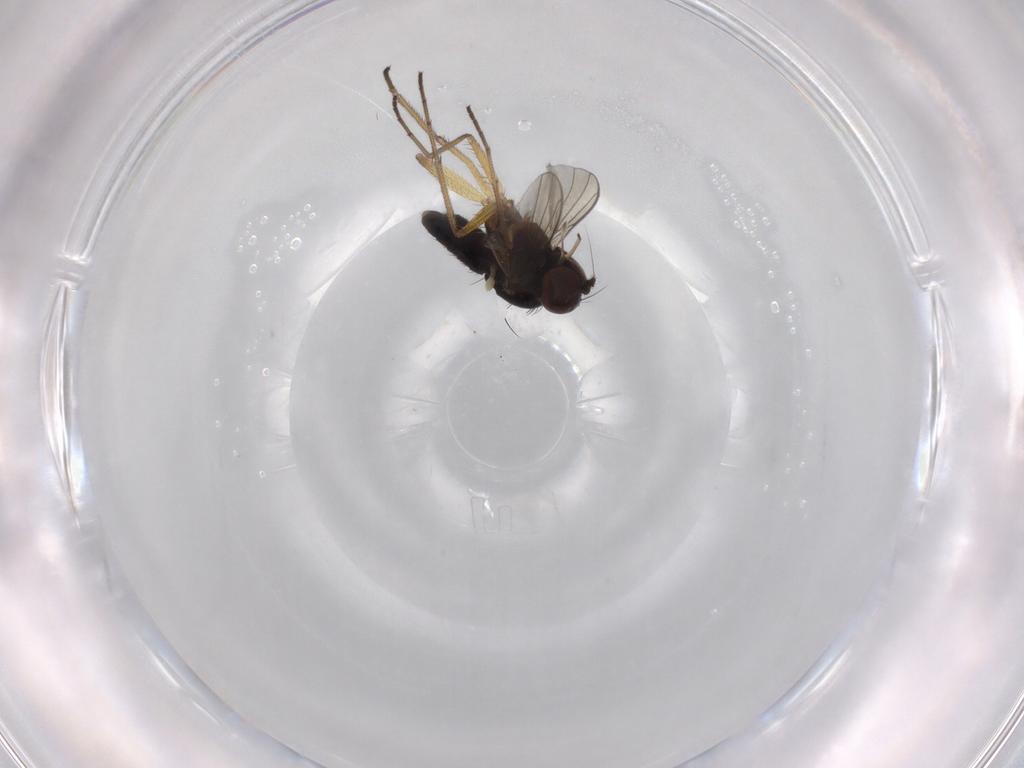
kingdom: Animalia
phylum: Arthropoda
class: Insecta
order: Diptera
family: Dolichopodidae
